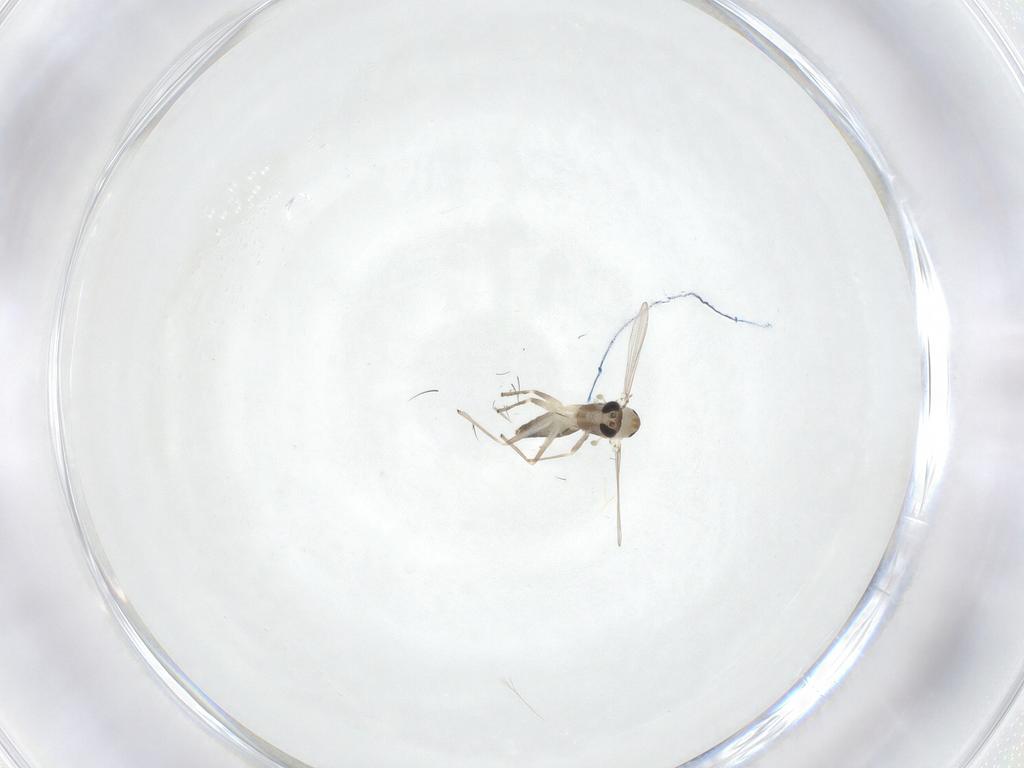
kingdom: Animalia
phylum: Arthropoda
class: Insecta
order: Diptera
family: Chironomidae
